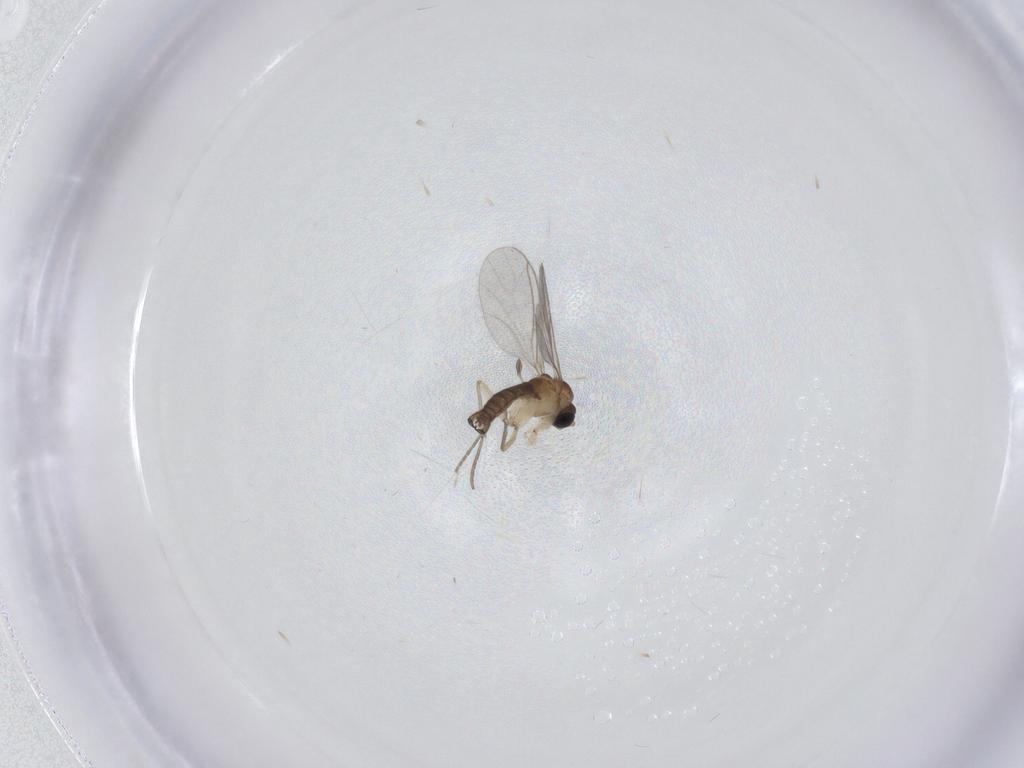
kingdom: Animalia
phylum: Arthropoda
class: Insecta
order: Diptera
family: Sciaridae
